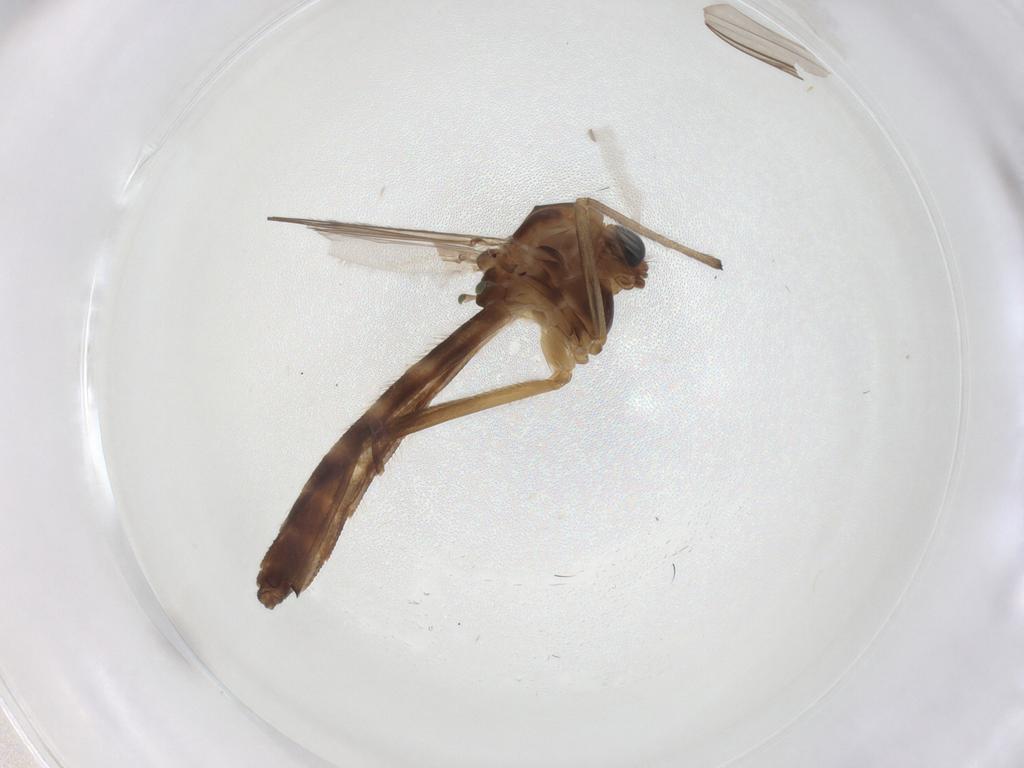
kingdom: Animalia
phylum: Arthropoda
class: Insecta
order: Diptera
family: Chironomidae
